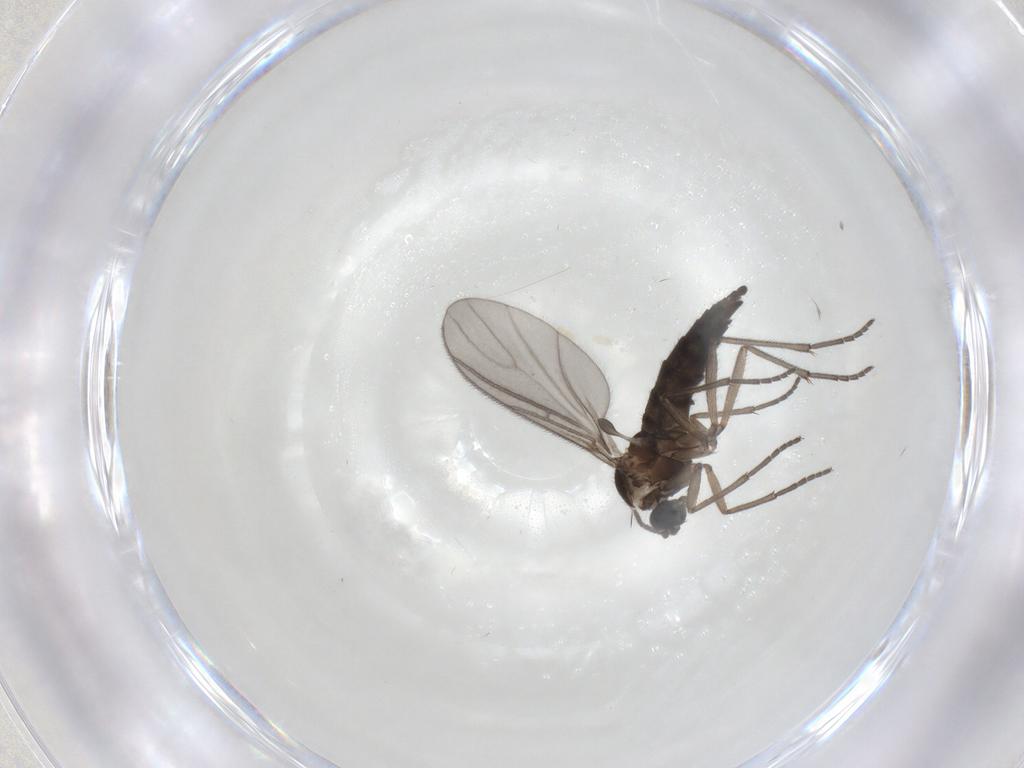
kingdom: Animalia
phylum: Arthropoda
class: Insecta
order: Diptera
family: Sciaridae
